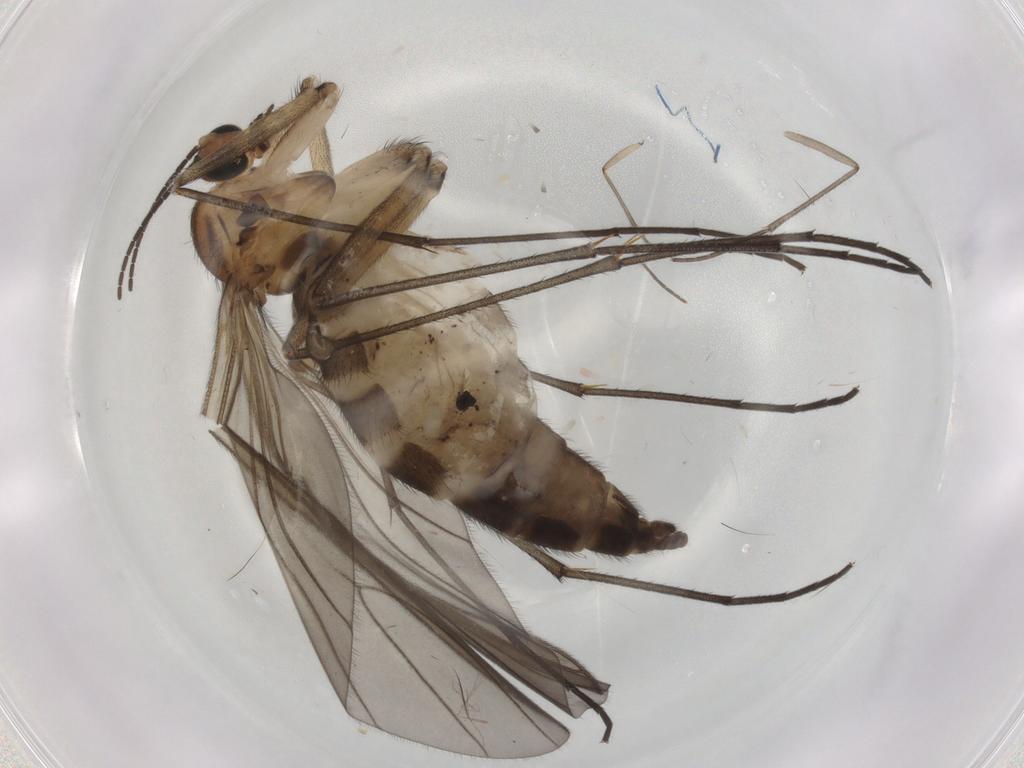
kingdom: Animalia
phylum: Arthropoda
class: Insecta
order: Diptera
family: Sciaridae
